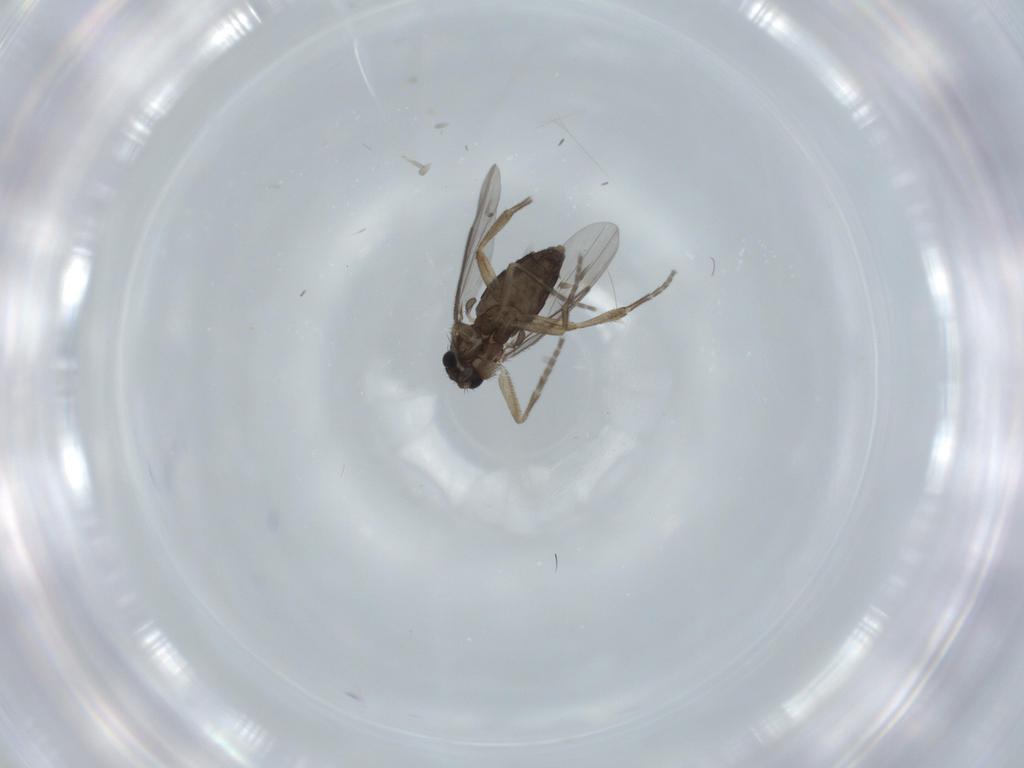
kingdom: Animalia
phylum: Arthropoda
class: Insecta
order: Diptera
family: Phoridae
